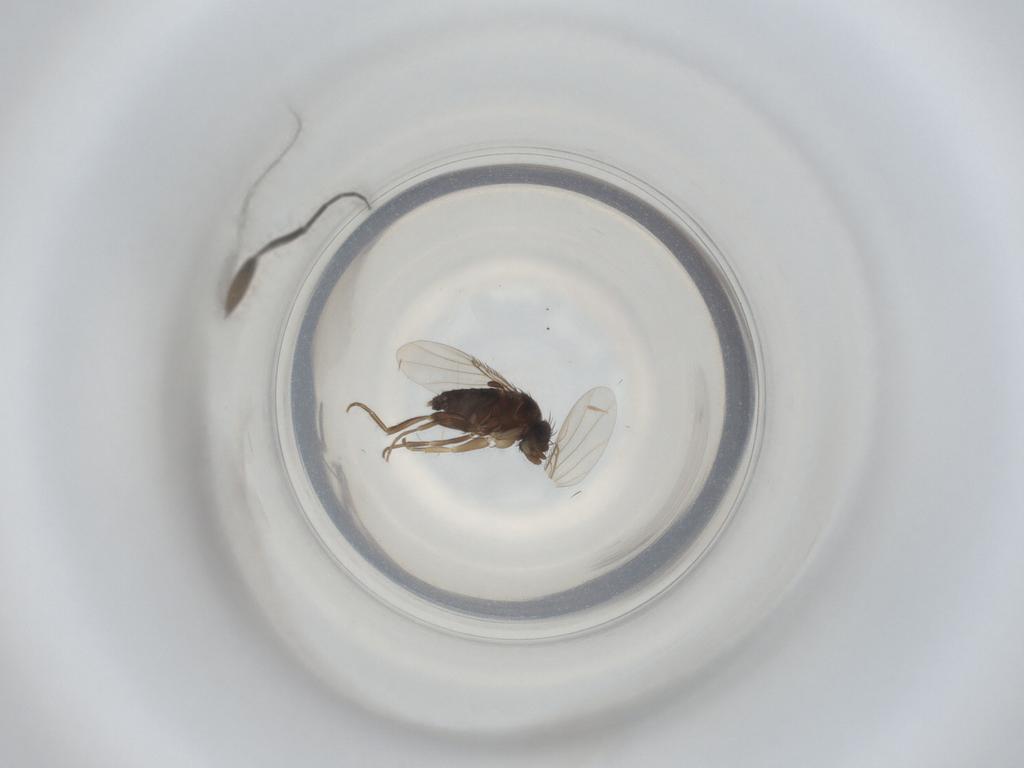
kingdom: Animalia
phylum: Arthropoda
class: Insecta
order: Diptera
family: Phoridae
